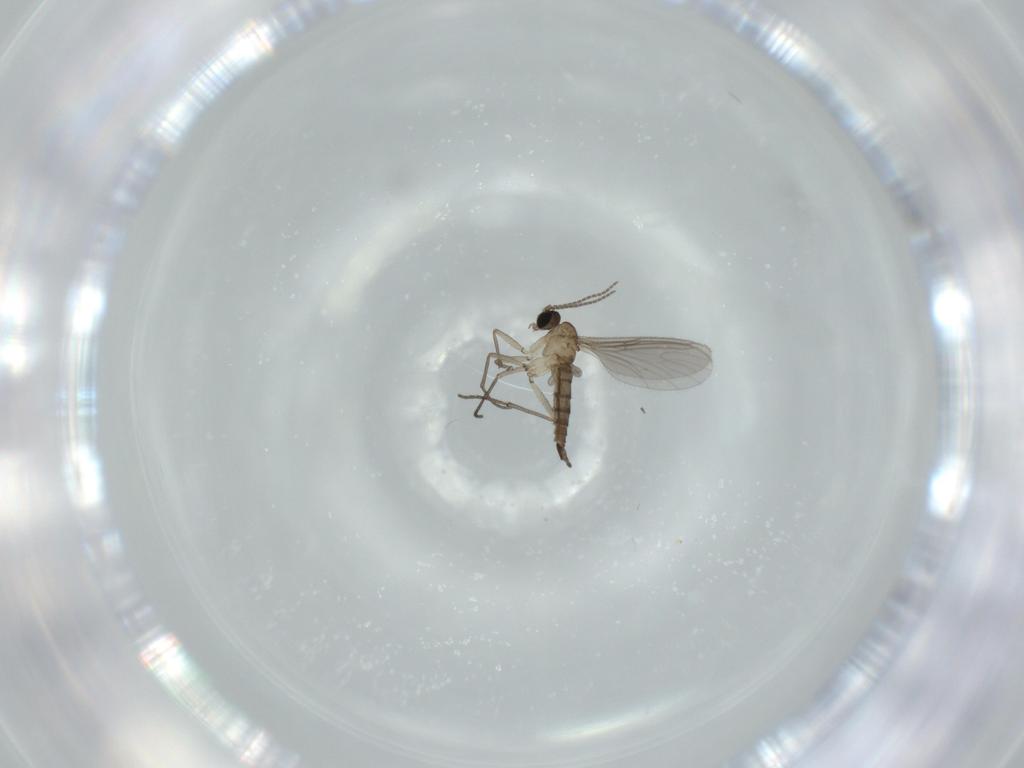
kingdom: Animalia
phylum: Arthropoda
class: Insecta
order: Diptera
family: Sciaridae
